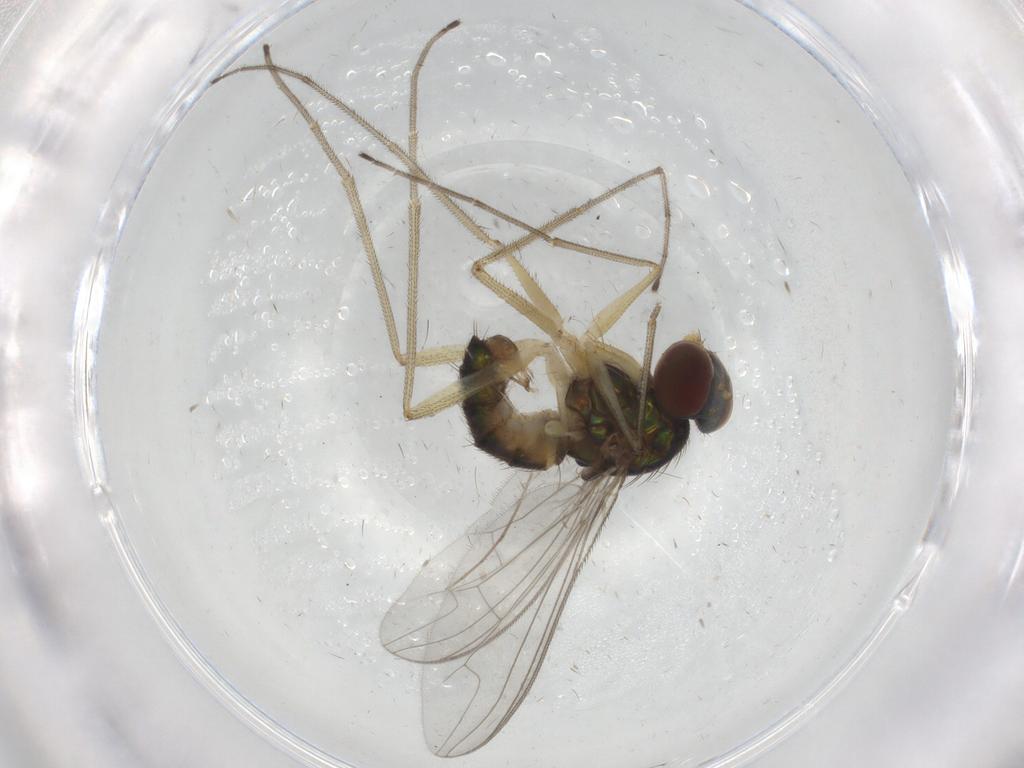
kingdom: Animalia
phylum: Arthropoda
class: Insecta
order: Diptera
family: Dolichopodidae
